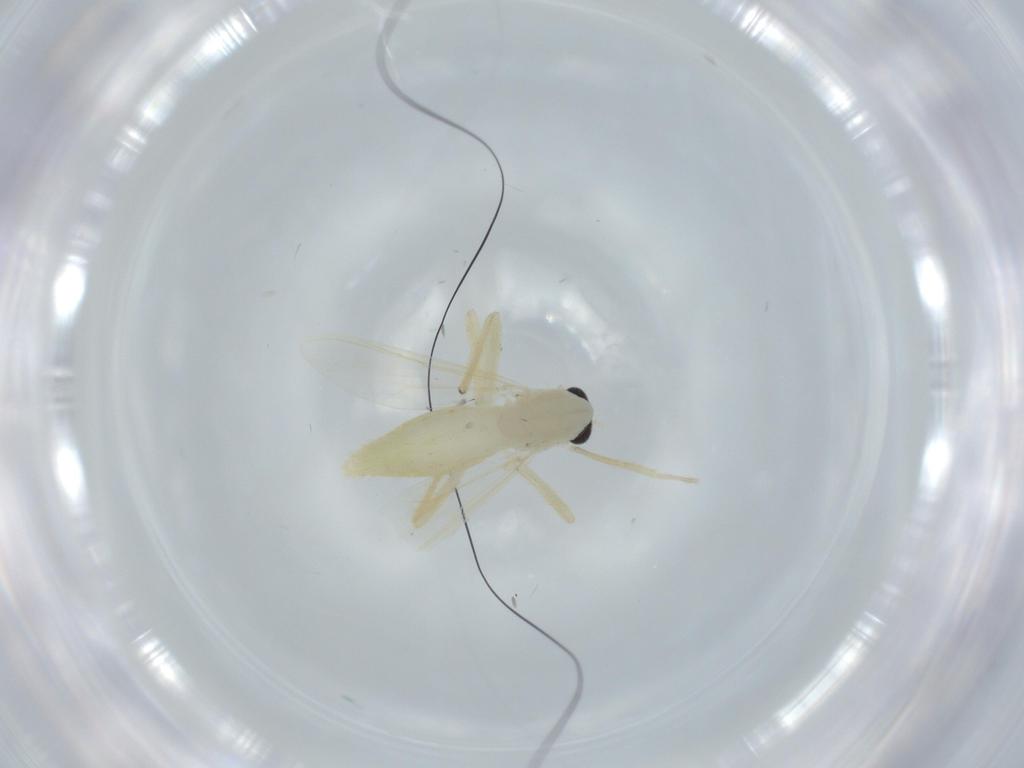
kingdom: Animalia
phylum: Arthropoda
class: Insecta
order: Diptera
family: Chironomidae
